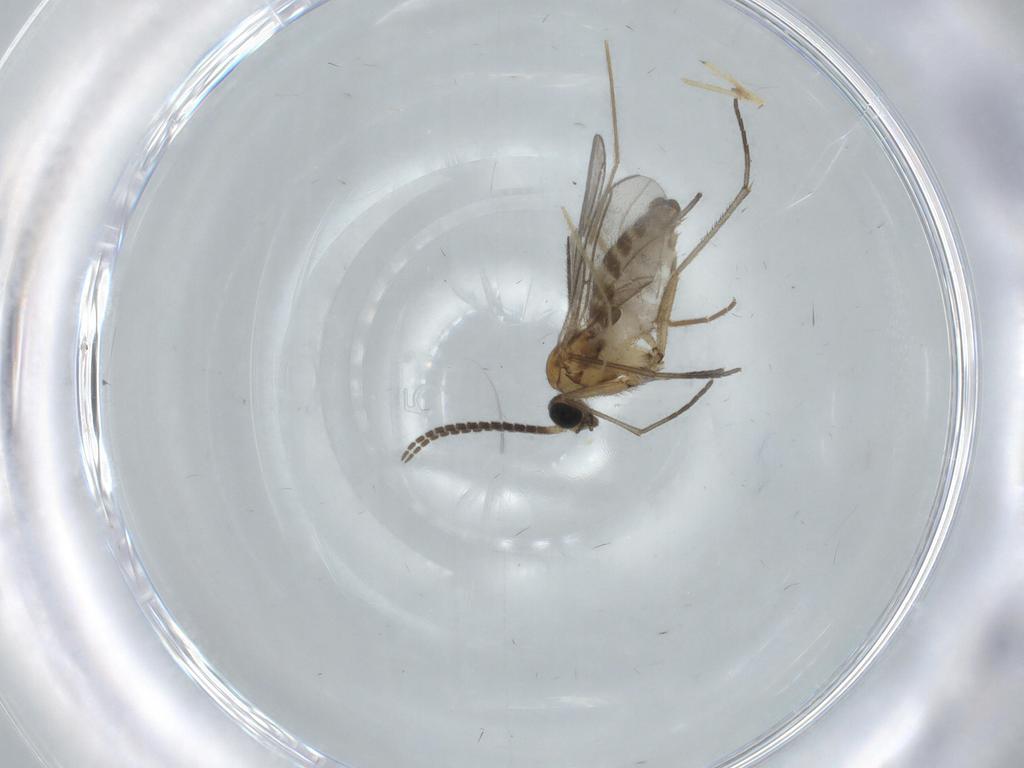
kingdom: Animalia
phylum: Arthropoda
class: Insecta
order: Diptera
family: Sciaridae
